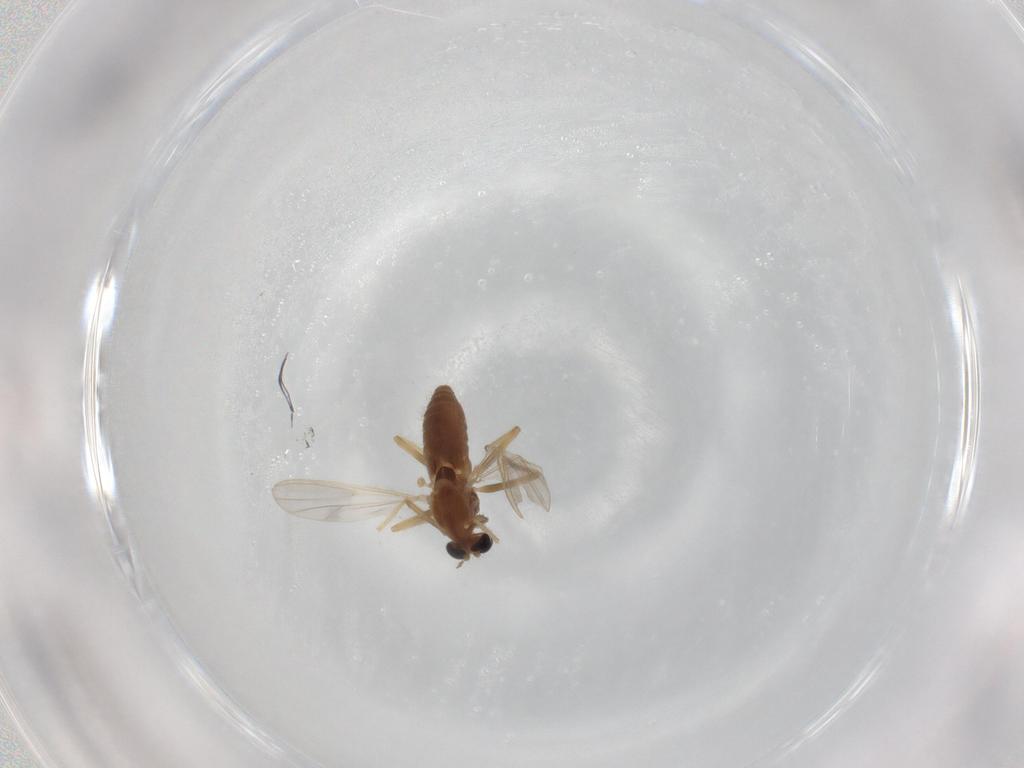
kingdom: Animalia
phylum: Arthropoda
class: Insecta
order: Diptera
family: Chironomidae
